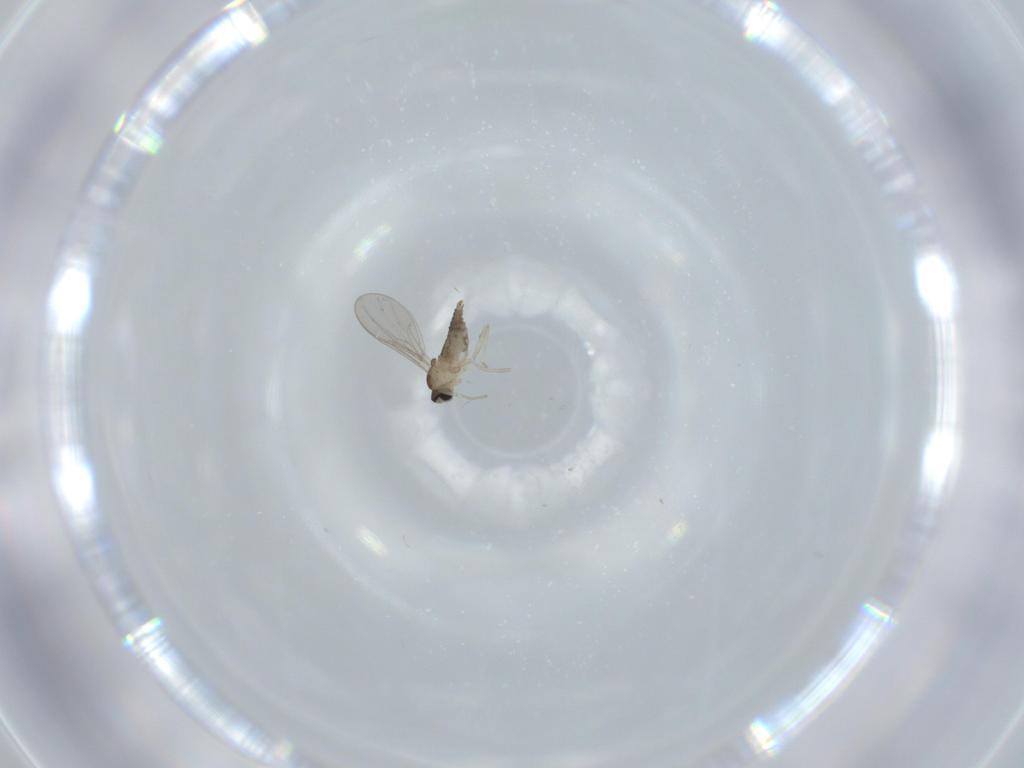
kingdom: Animalia
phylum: Arthropoda
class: Insecta
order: Diptera
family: Cecidomyiidae
